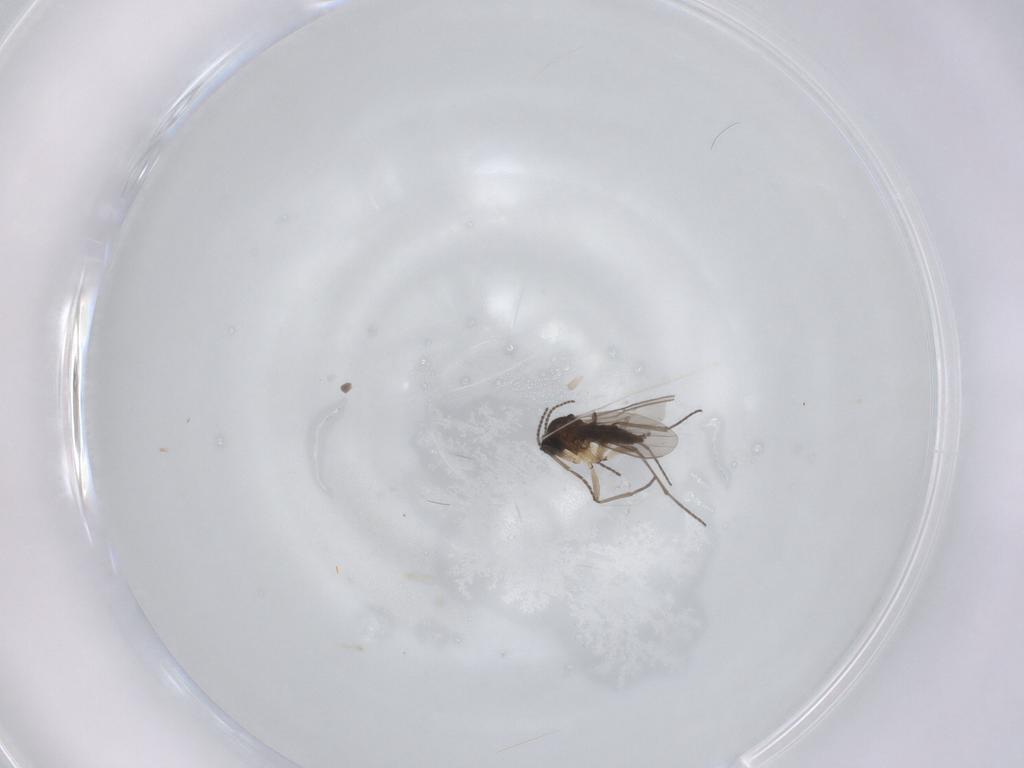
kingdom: Animalia
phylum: Arthropoda
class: Insecta
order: Diptera
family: Sciaridae
